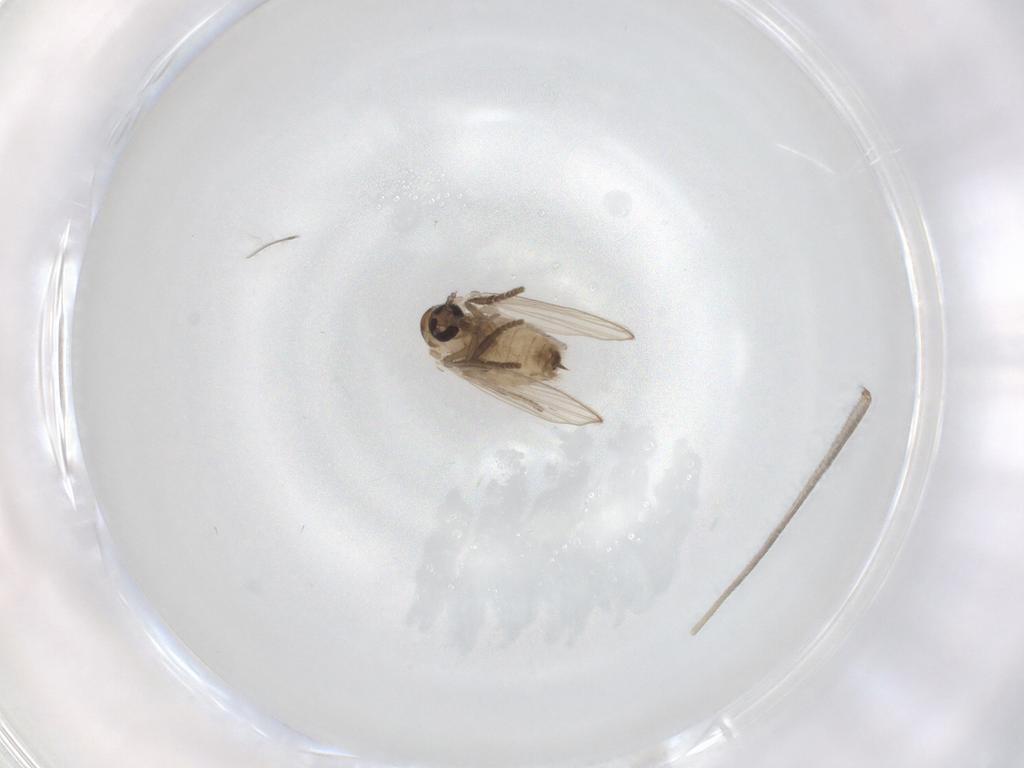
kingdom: Animalia
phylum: Arthropoda
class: Insecta
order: Diptera
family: Limoniidae
